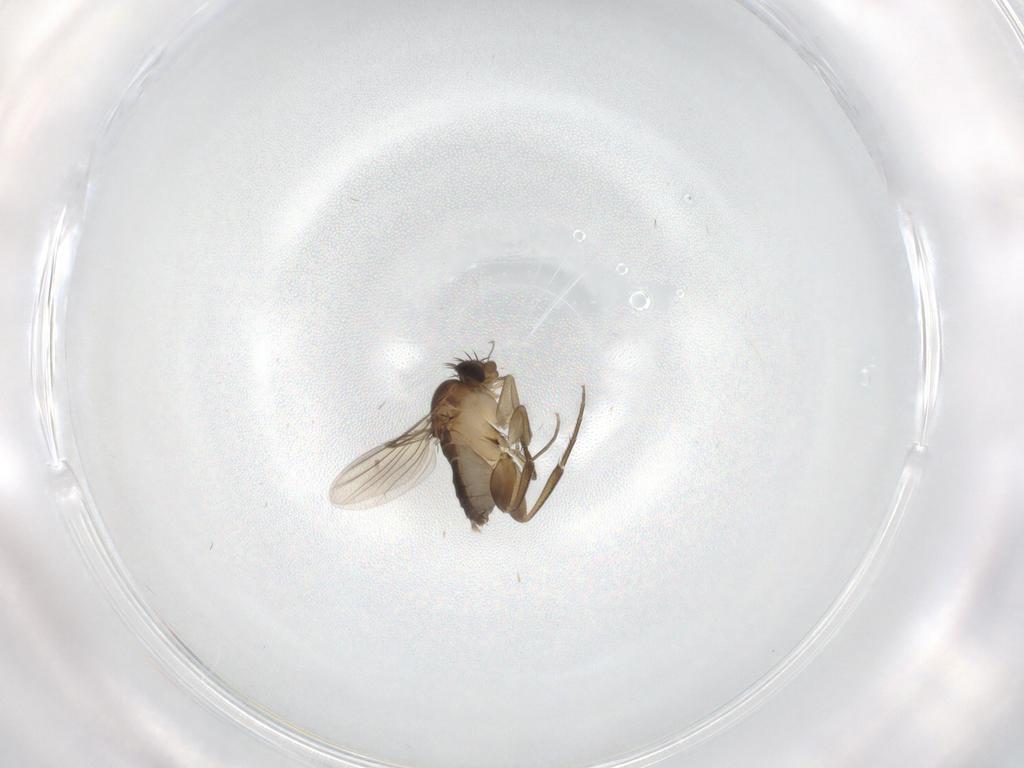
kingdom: Animalia
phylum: Arthropoda
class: Insecta
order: Diptera
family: Phoridae
